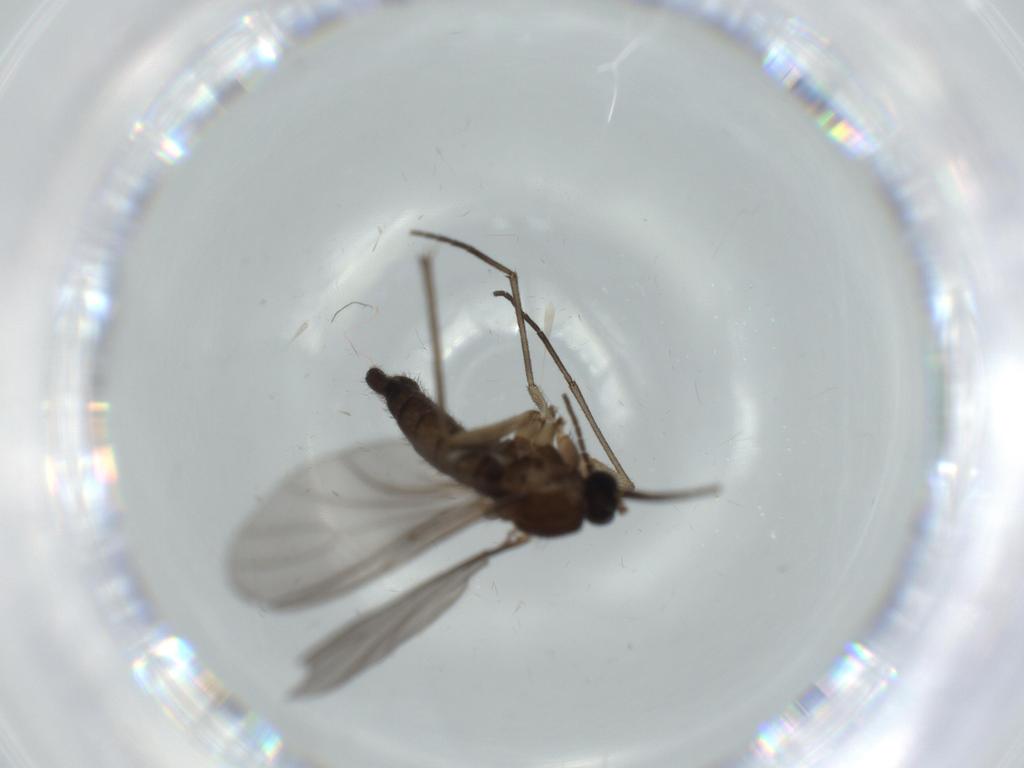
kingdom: Animalia
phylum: Arthropoda
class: Insecta
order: Diptera
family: Sciaridae
